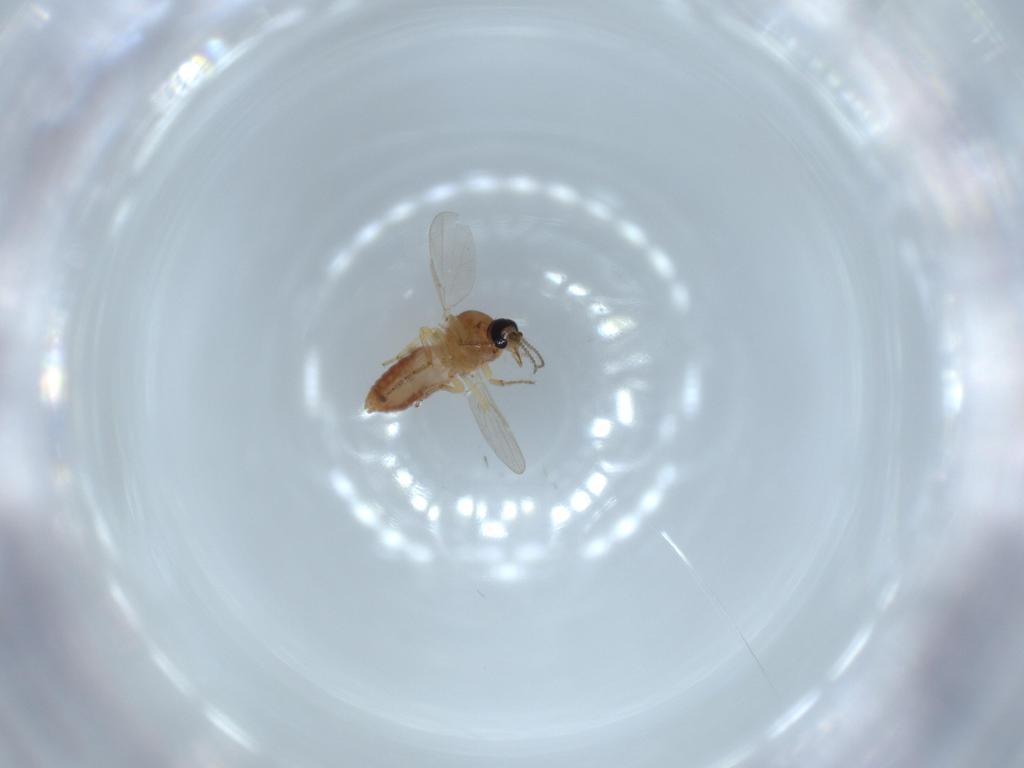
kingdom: Animalia
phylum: Arthropoda
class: Insecta
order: Diptera
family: Ceratopogonidae
